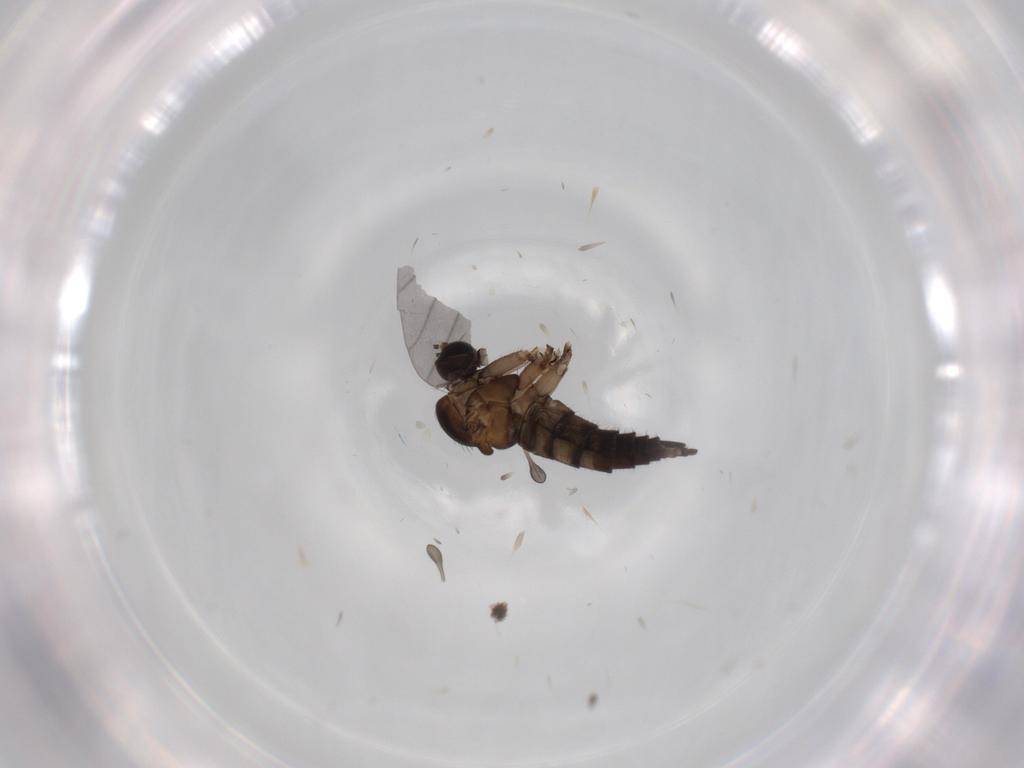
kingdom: Animalia
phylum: Arthropoda
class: Insecta
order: Diptera
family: Sciaridae
